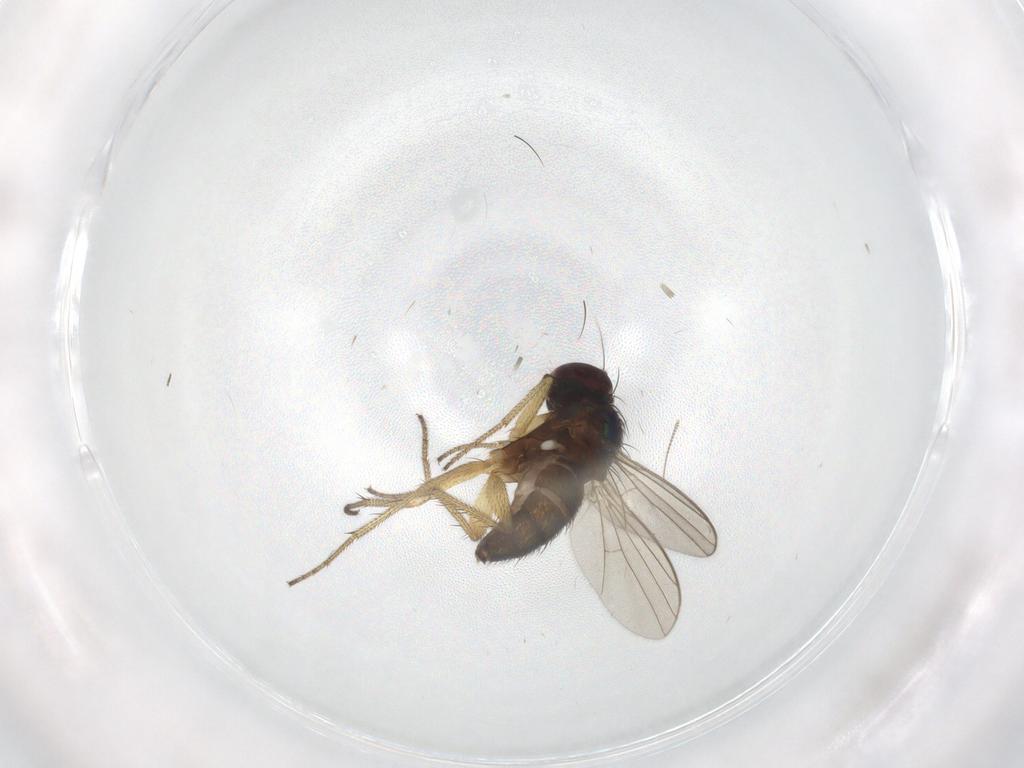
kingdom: Animalia
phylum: Arthropoda
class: Insecta
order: Diptera
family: Chironomidae
